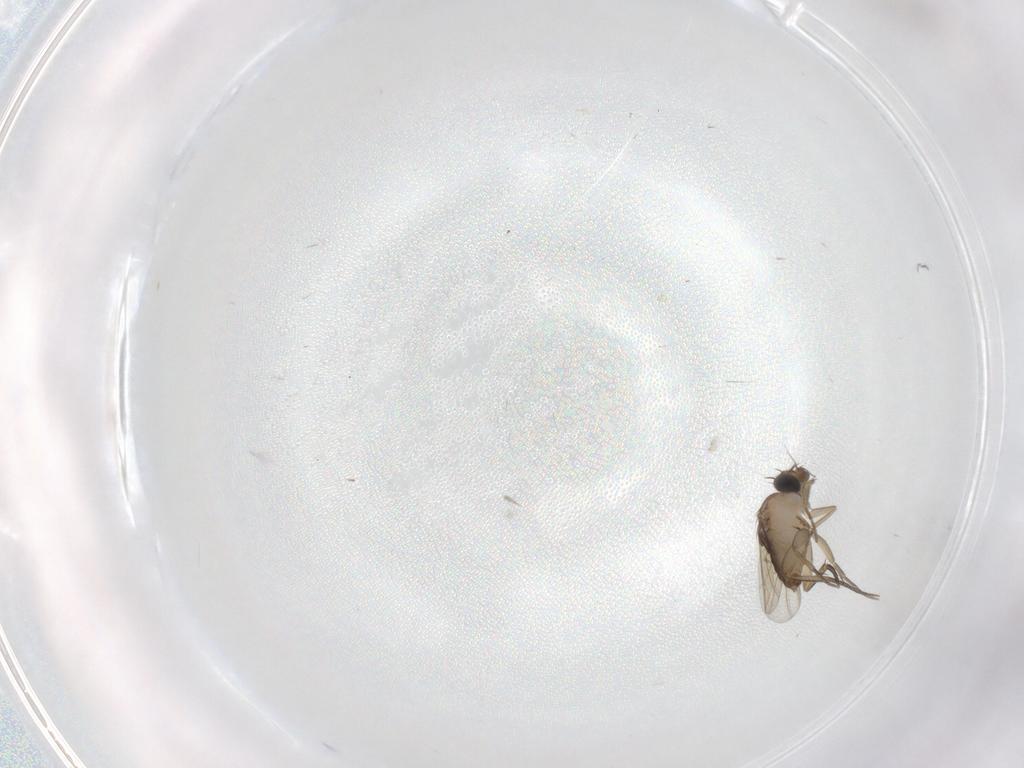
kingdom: Animalia
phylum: Arthropoda
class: Insecta
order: Diptera
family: Phoridae
